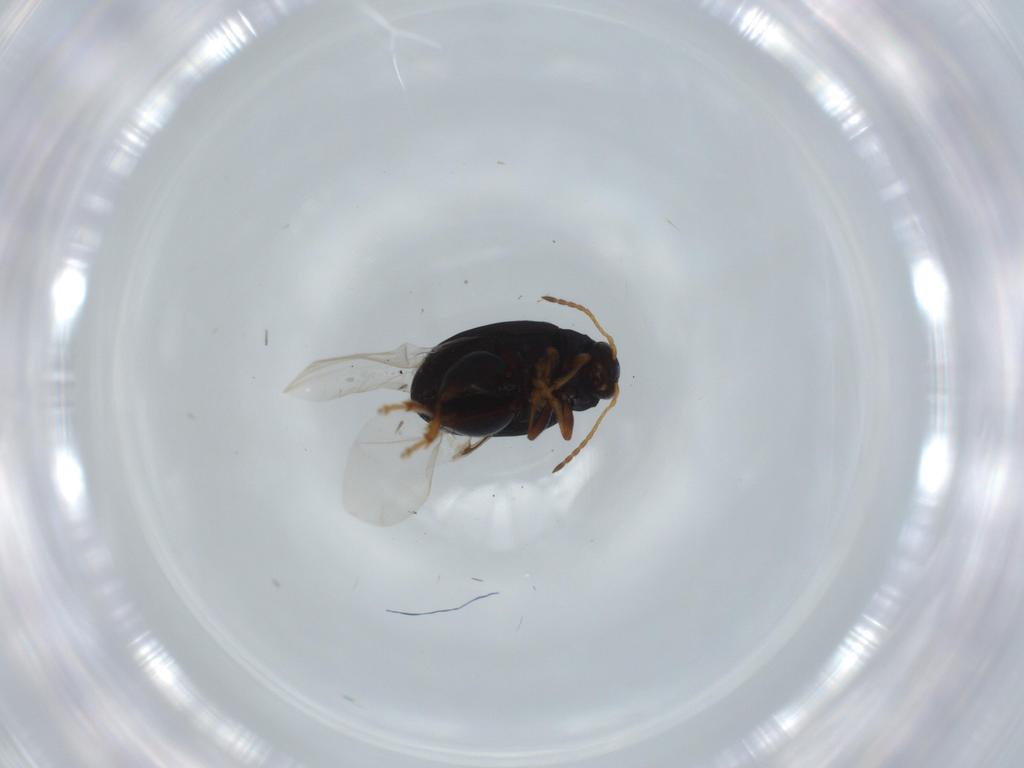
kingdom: Animalia
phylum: Arthropoda
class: Insecta
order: Coleoptera
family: Chrysomelidae
